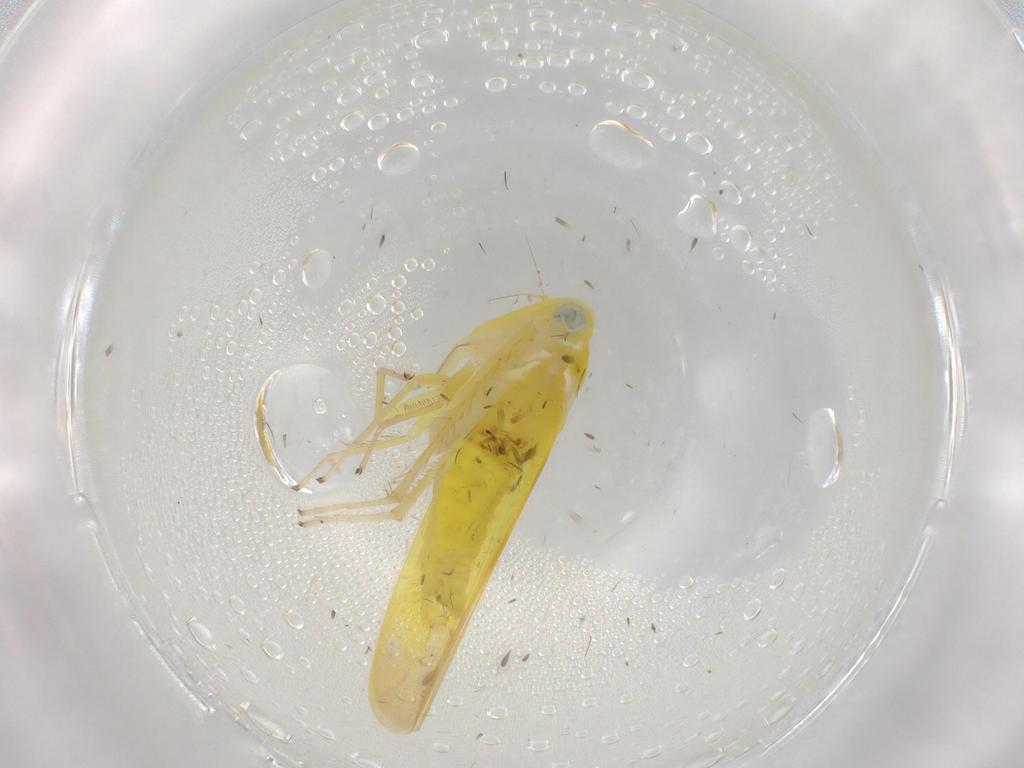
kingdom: Animalia
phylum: Arthropoda
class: Insecta
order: Hemiptera
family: Cicadellidae
